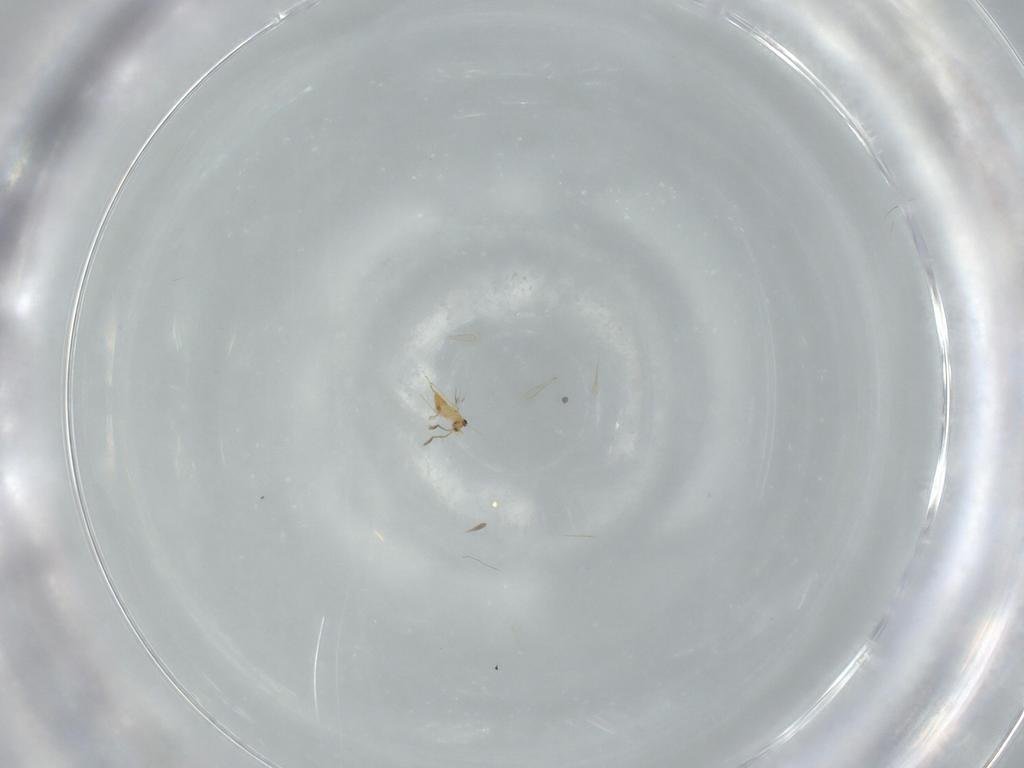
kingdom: Animalia
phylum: Arthropoda
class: Insecta
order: Hymenoptera
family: Mymaridae
